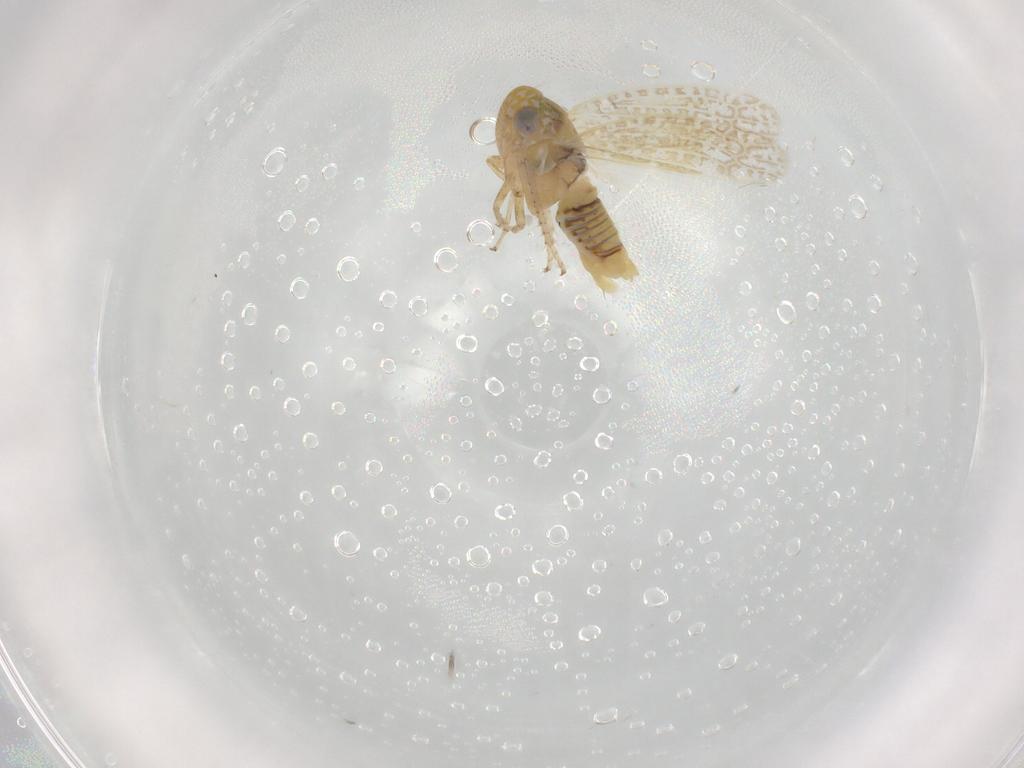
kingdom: Animalia
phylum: Arthropoda
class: Insecta
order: Hemiptera
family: Cicadellidae
